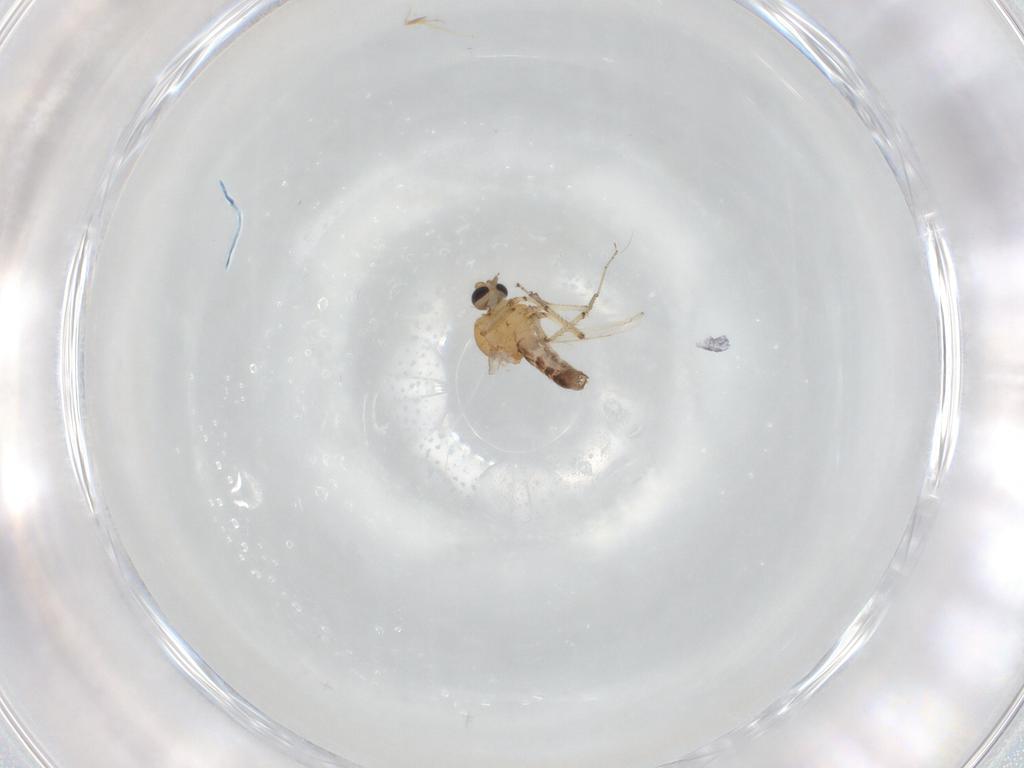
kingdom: Animalia
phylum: Arthropoda
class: Insecta
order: Diptera
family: Ceratopogonidae
